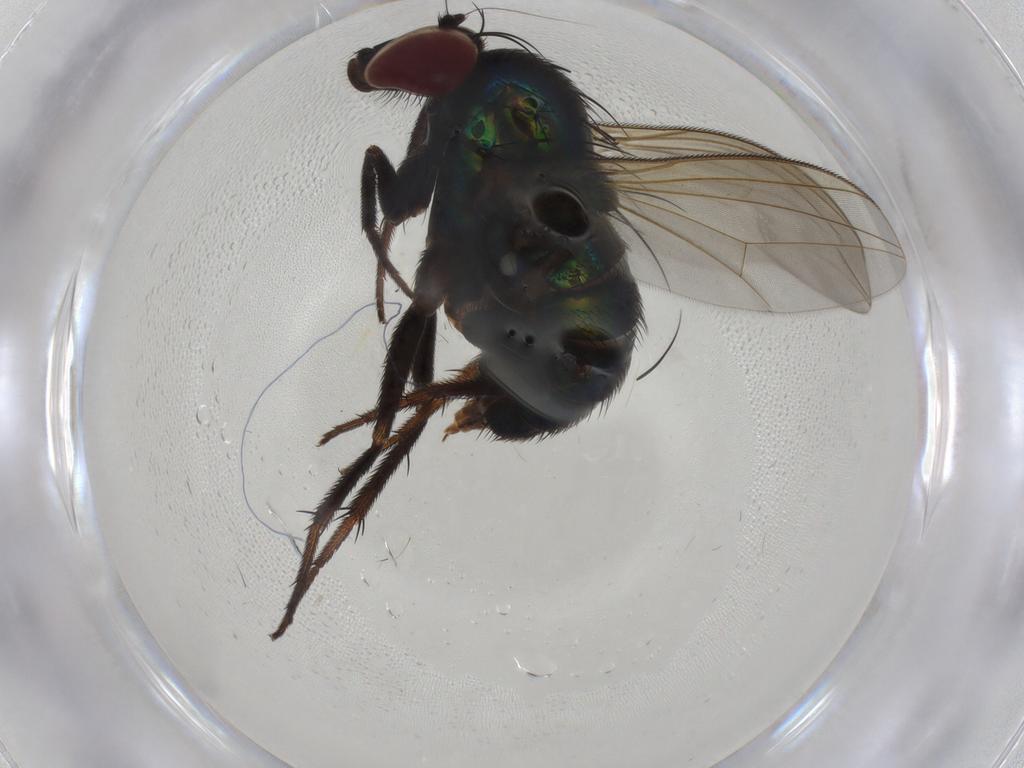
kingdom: Animalia
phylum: Arthropoda
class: Insecta
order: Diptera
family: Dolichopodidae
